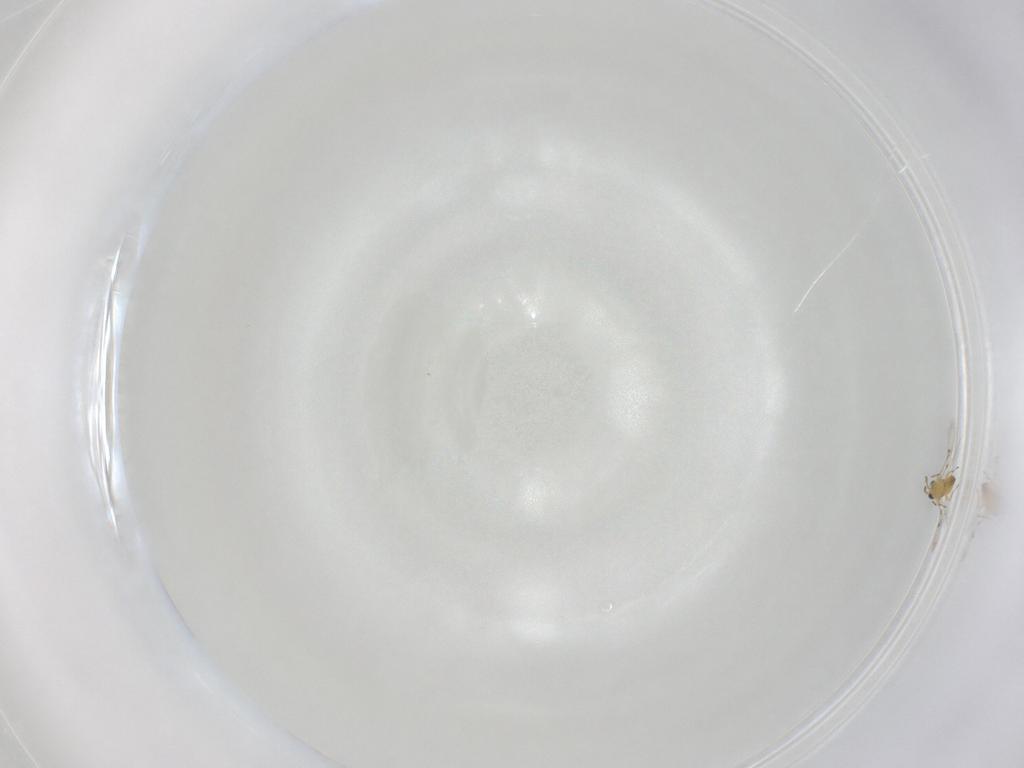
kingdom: Animalia
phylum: Arthropoda
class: Insecta
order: Hymenoptera
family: Trichogrammatidae
